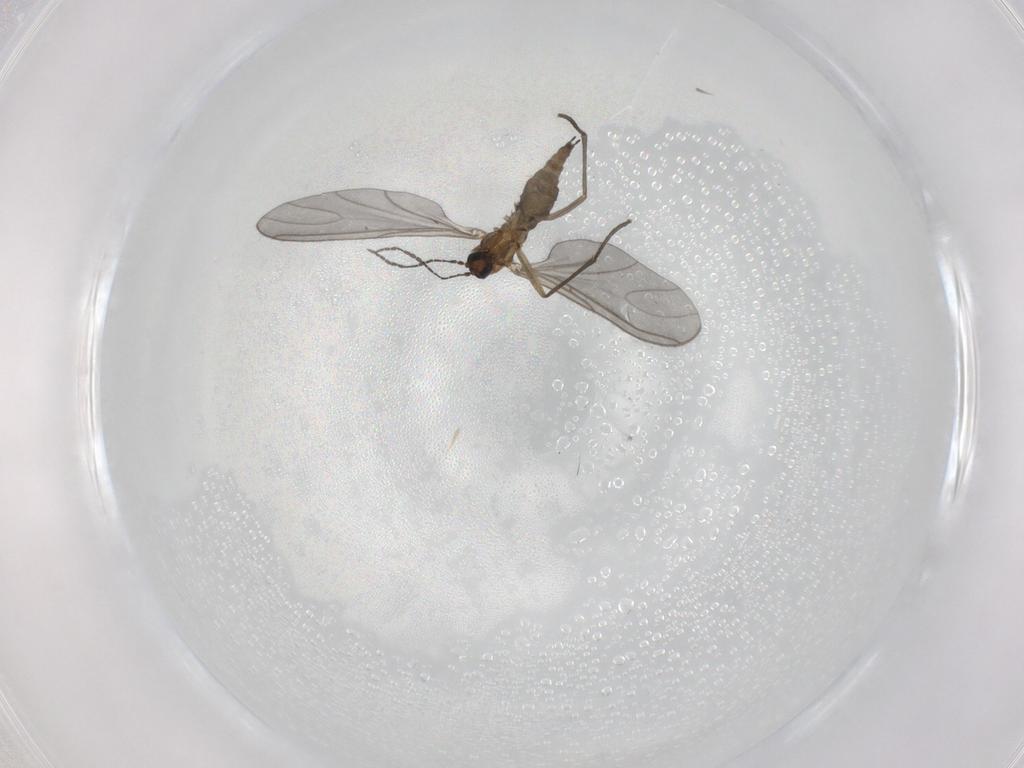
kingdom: Animalia
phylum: Arthropoda
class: Insecta
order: Diptera
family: Sciaridae
